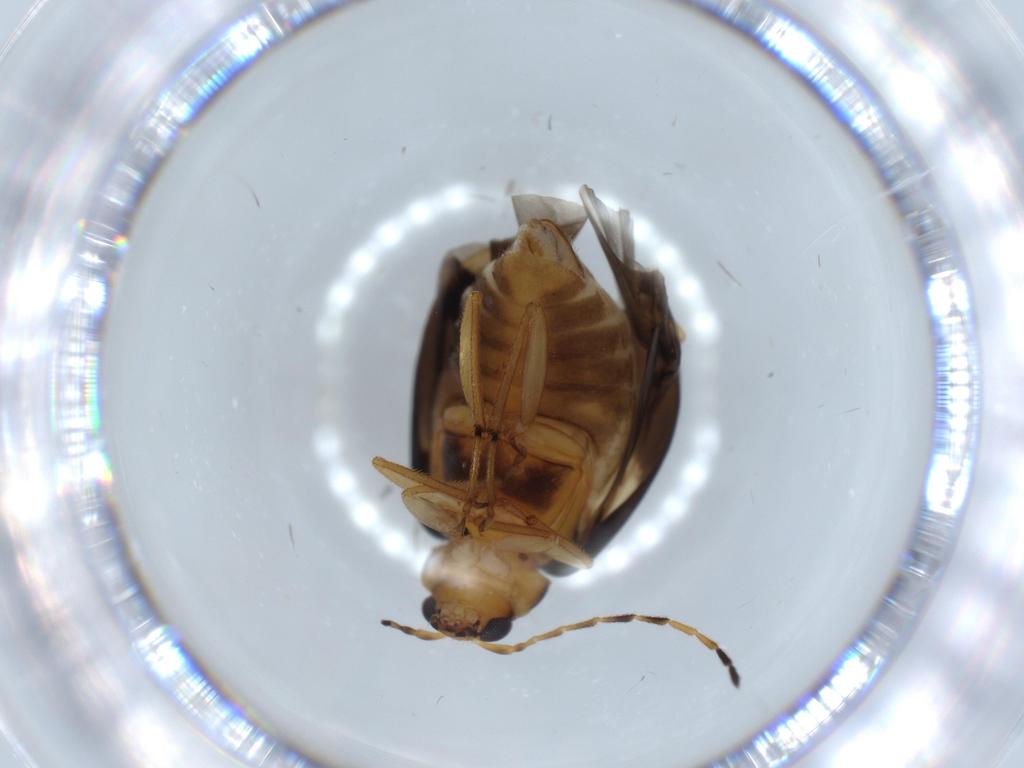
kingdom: Animalia
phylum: Arthropoda
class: Insecta
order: Coleoptera
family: Chrysomelidae
